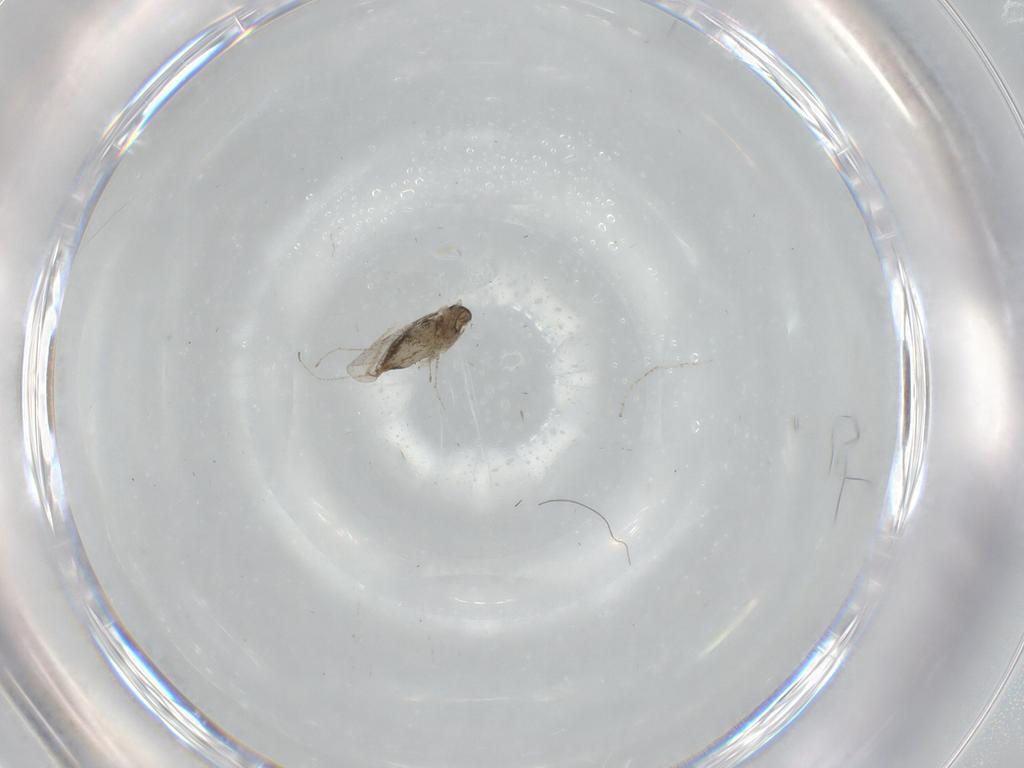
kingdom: Animalia
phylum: Arthropoda
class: Insecta
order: Diptera
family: Cecidomyiidae
